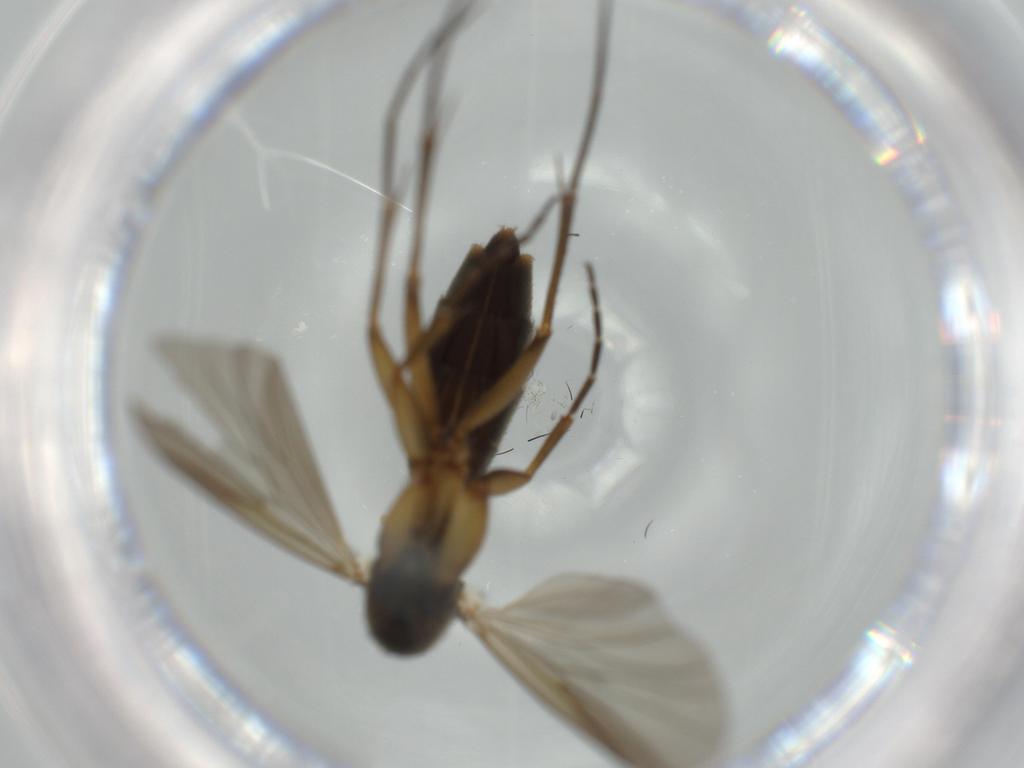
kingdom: Animalia
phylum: Arthropoda
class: Insecta
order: Diptera
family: Mycetophilidae
